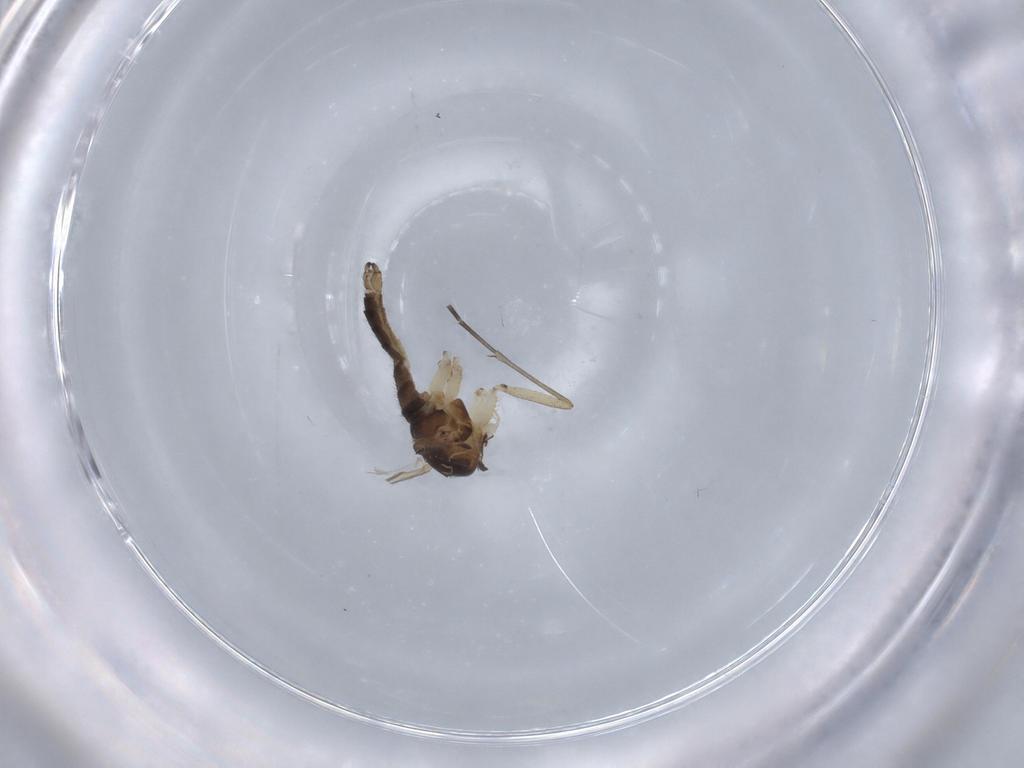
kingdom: Animalia
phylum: Arthropoda
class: Insecta
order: Diptera
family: Sciaridae
